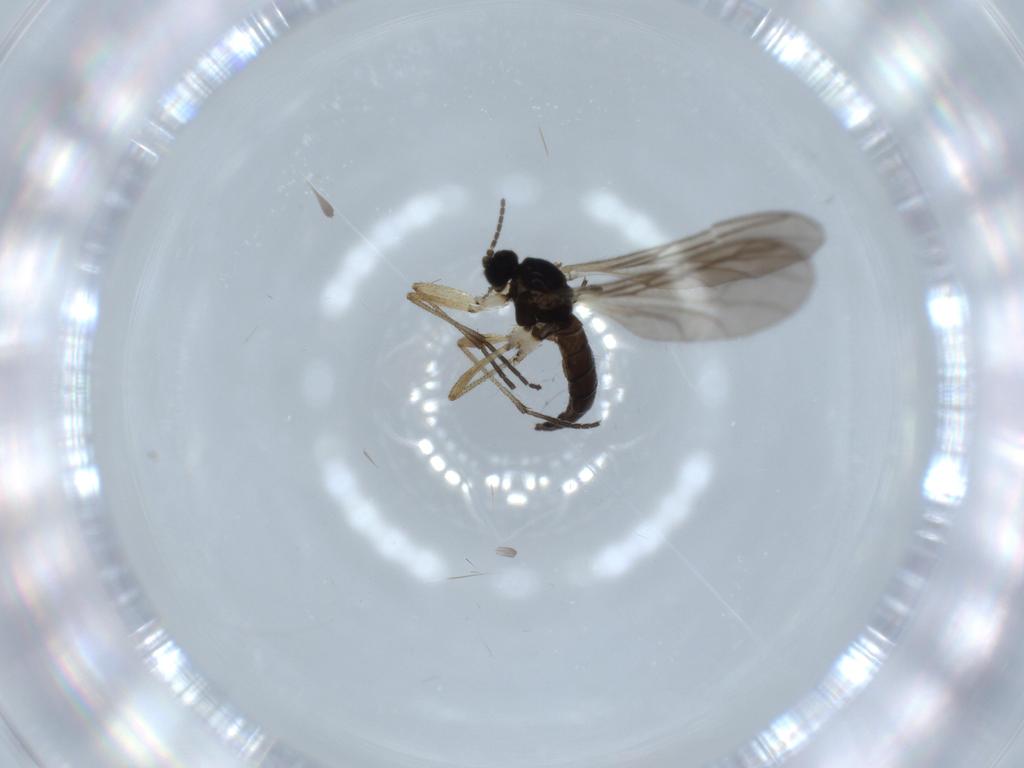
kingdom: Animalia
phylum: Arthropoda
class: Insecta
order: Diptera
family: Sciaridae
